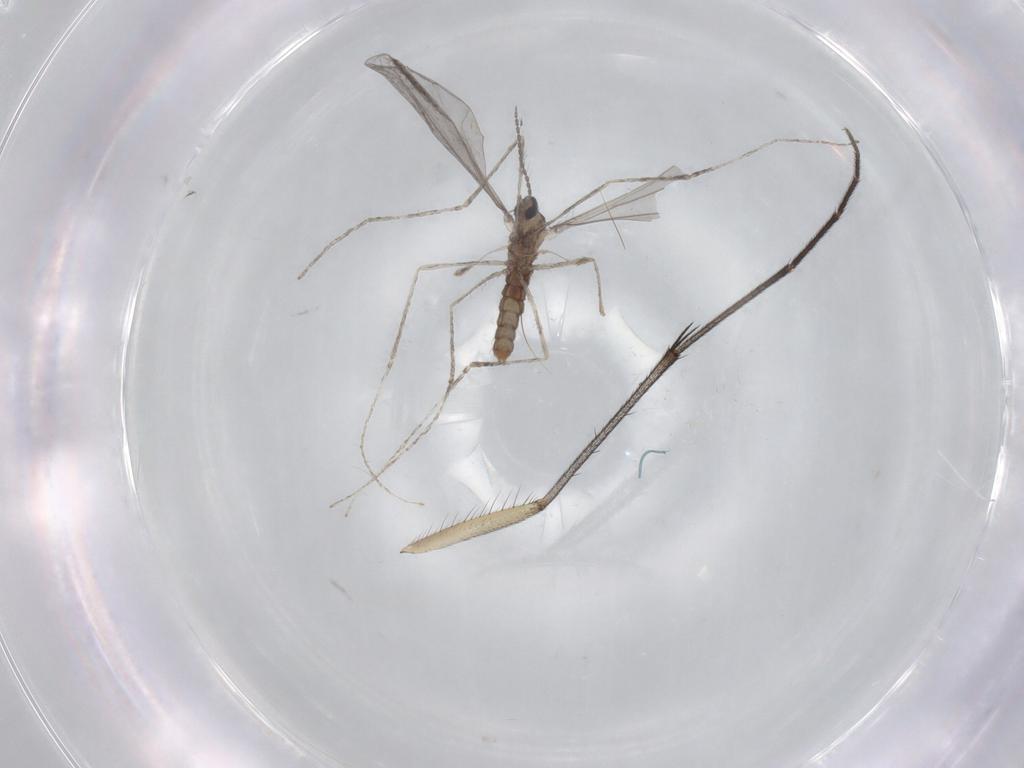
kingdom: Animalia
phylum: Arthropoda
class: Insecta
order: Diptera
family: Cecidomyiidae
